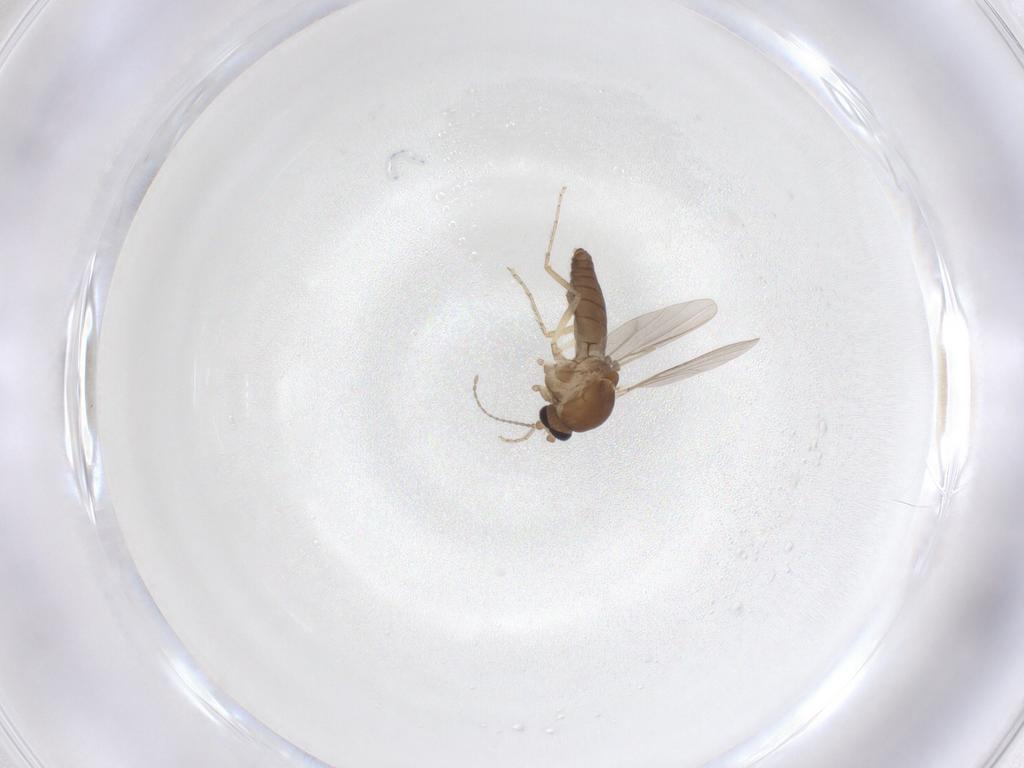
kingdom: Animalia
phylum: Arthropoda
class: Insecta
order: Diptera
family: Ceratopogonidae
